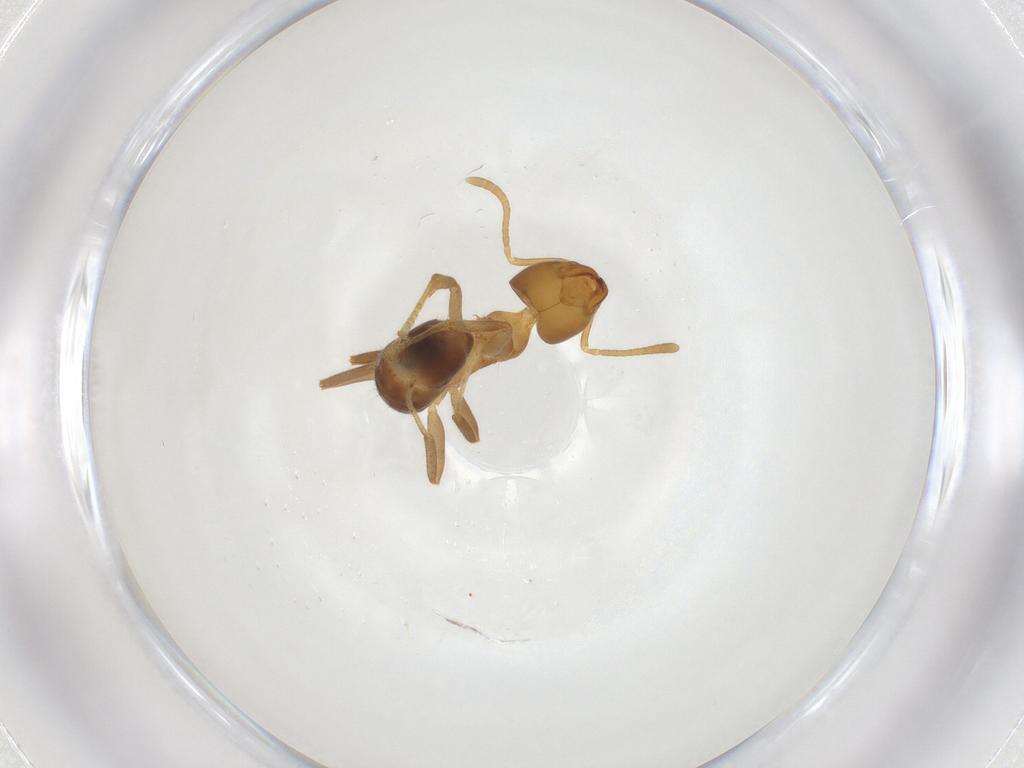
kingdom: Animalia
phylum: Arthropoda
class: Insecta
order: Hymenoptera
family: Formicidae
